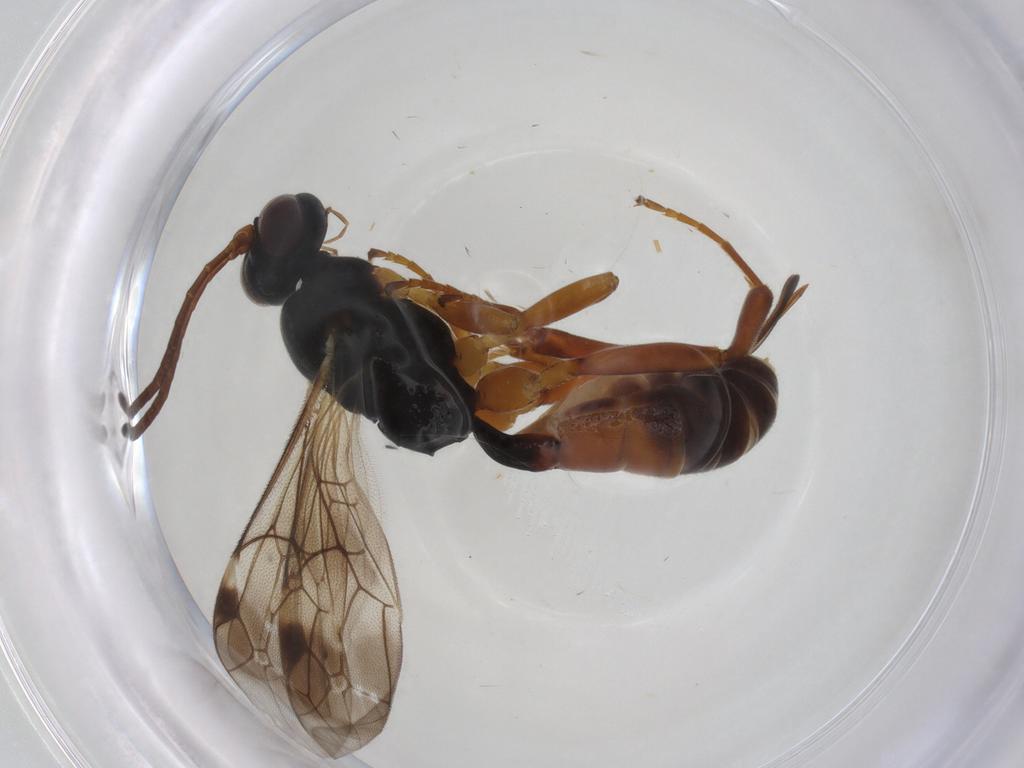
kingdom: Animalia
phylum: Arthropoda
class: Insecta
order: Hymenoptera
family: Ichneumonidae
